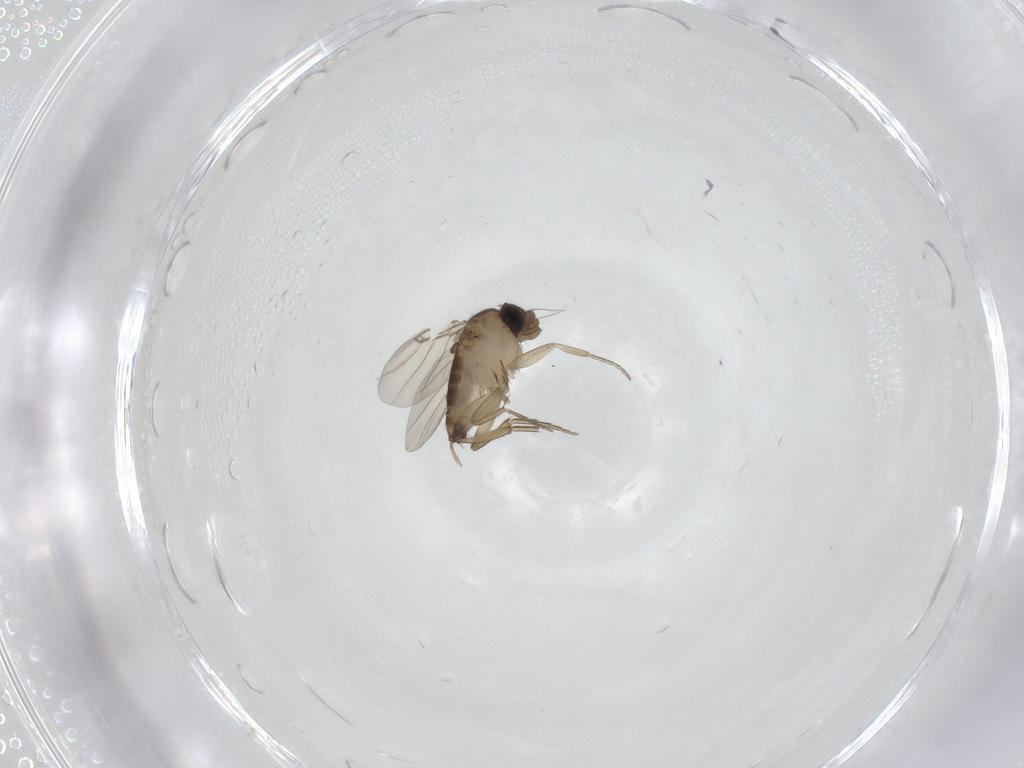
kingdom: Animalia
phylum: Arthropoda
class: Insecta
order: Diptera
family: Phoridae
